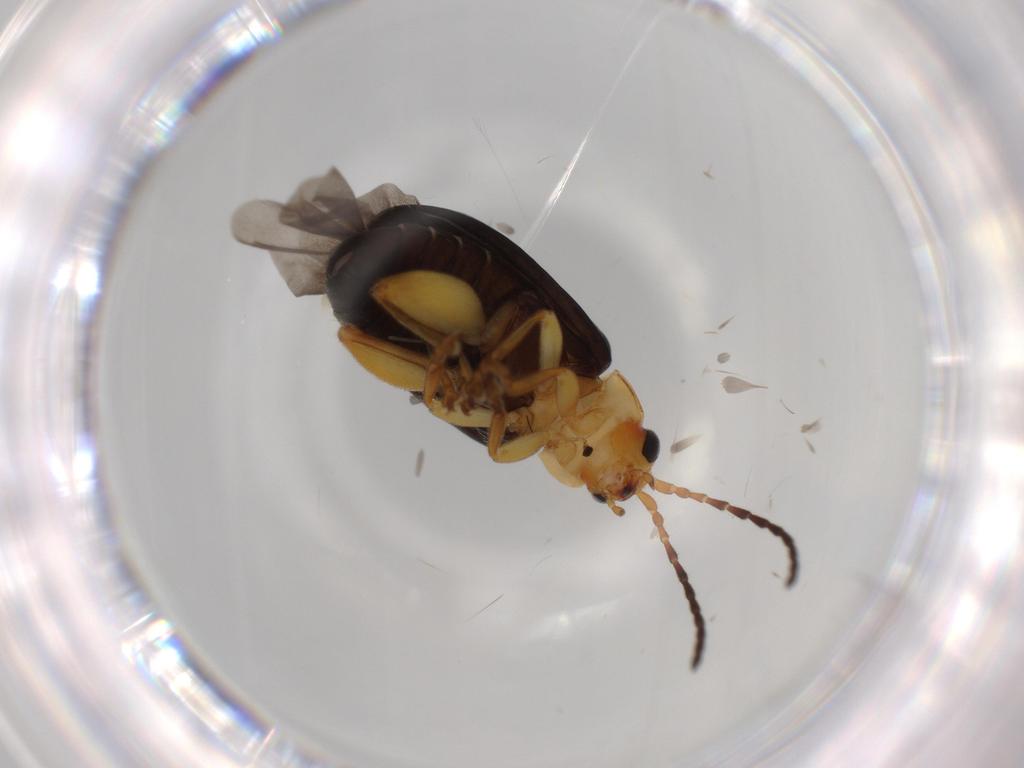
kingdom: Animalia
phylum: Arthropoda
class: Insecta
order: Coleoptera
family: Chrysomelidae
